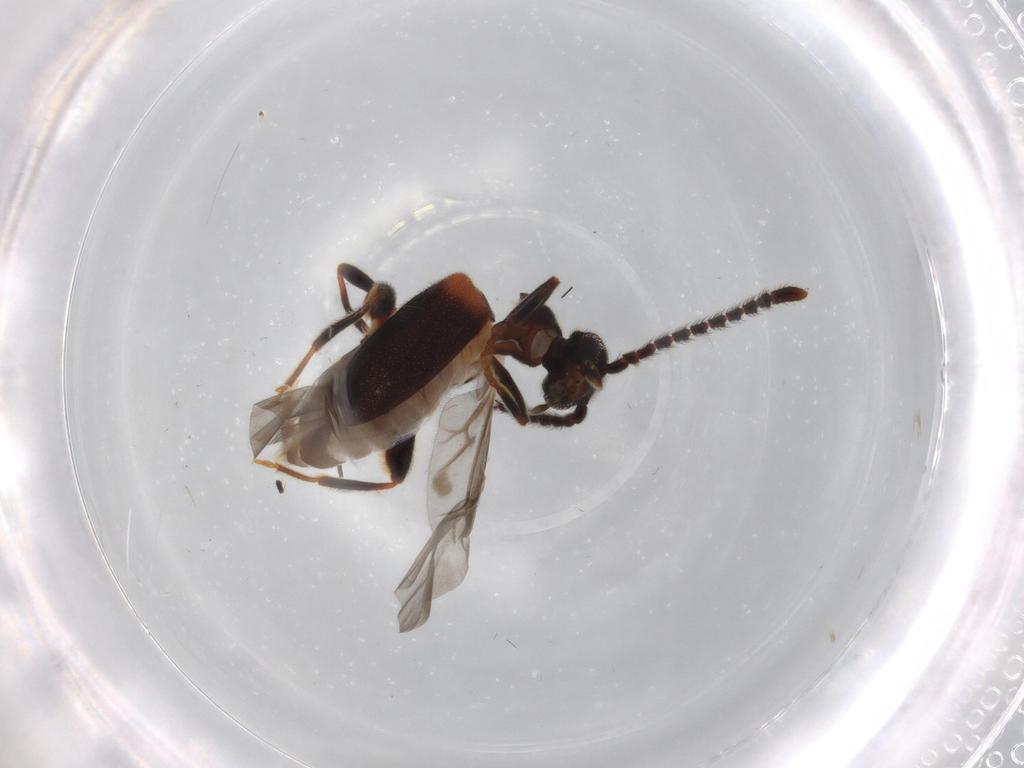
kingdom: Animalia
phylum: Arthropoda
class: Insecta
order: Coleoptera
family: Aderidae
